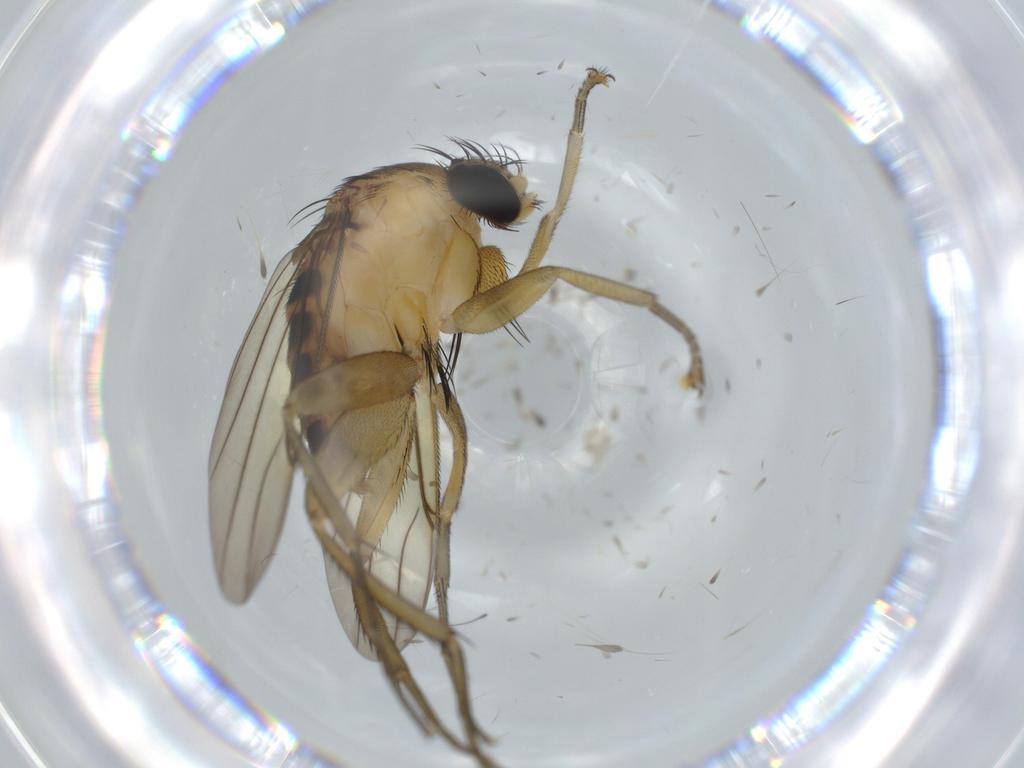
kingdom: Animalia
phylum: Arthropoda
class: Insecta
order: Diptera
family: Phoridae
